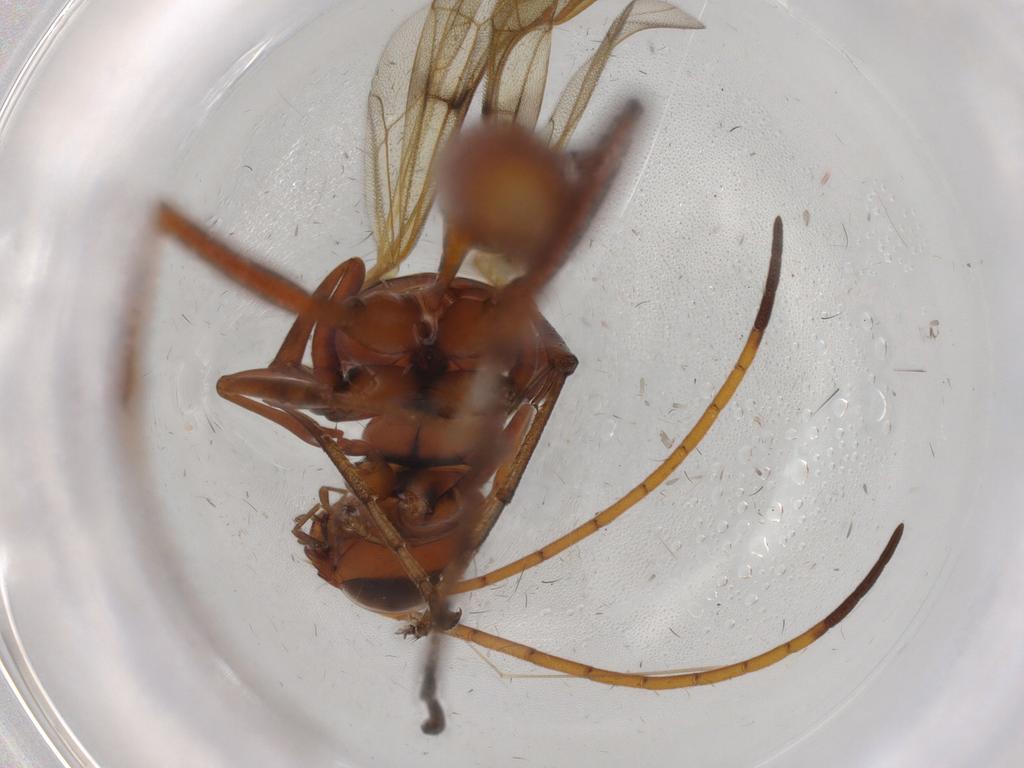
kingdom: Animalia
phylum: Arthropoda
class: Insecta
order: Hymenoptera
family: Pompilidae
